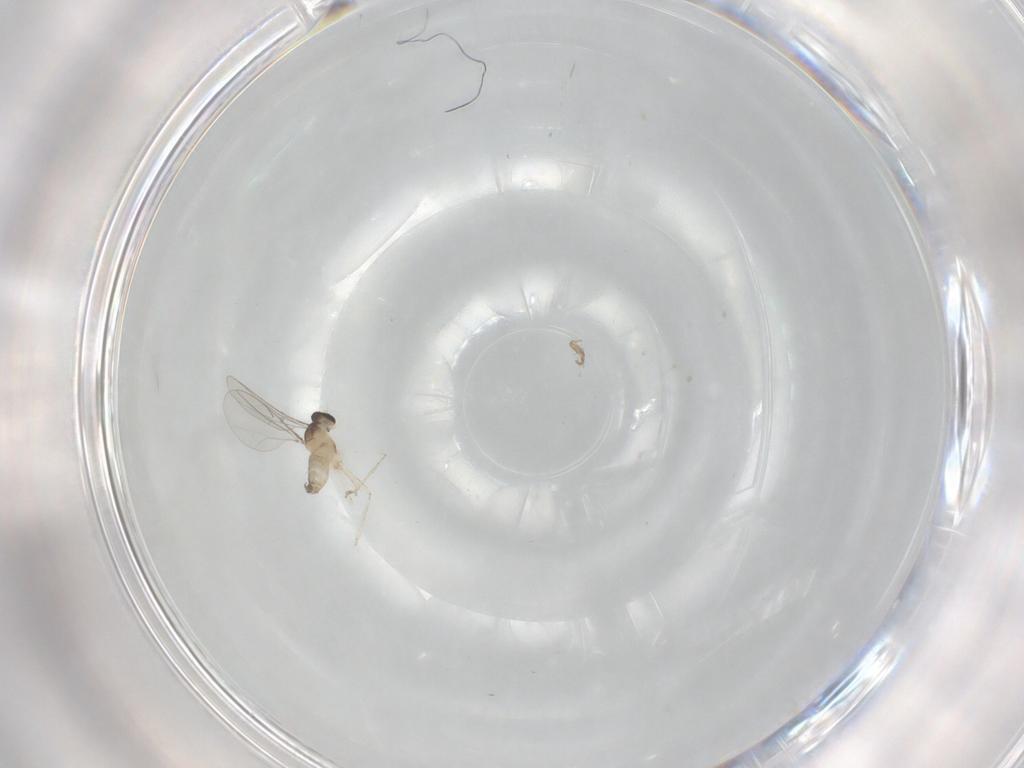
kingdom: Animalia
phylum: Arthropoda
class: Insecta
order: Diptera
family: Cecidomyiidae
